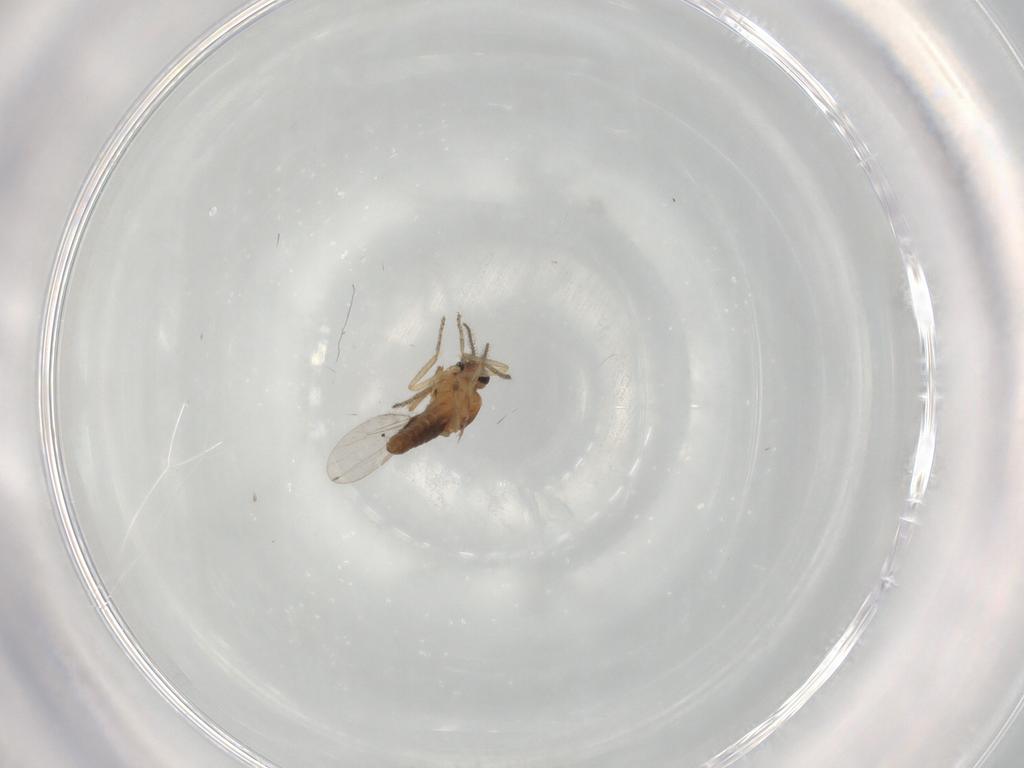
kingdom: Animalia
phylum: Arthropoda
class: Insecta
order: Diptera
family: Ceratopogonidae
